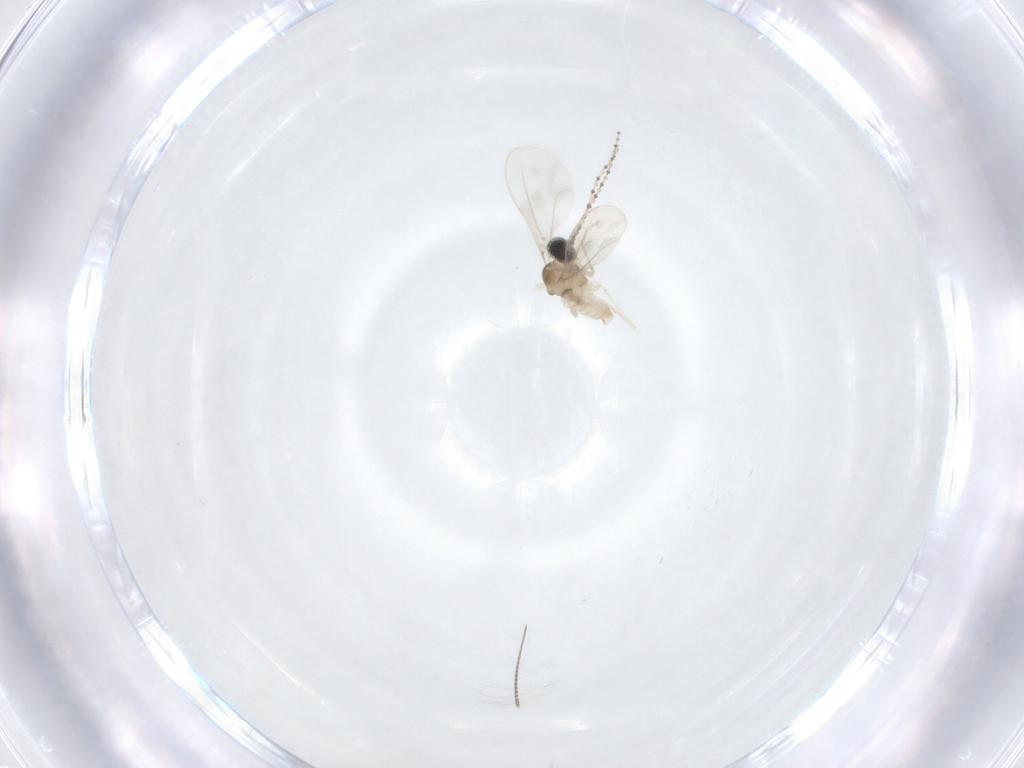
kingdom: Animalia
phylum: Arthropoda
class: Insecta
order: Diptera
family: Cecidomyiidae
